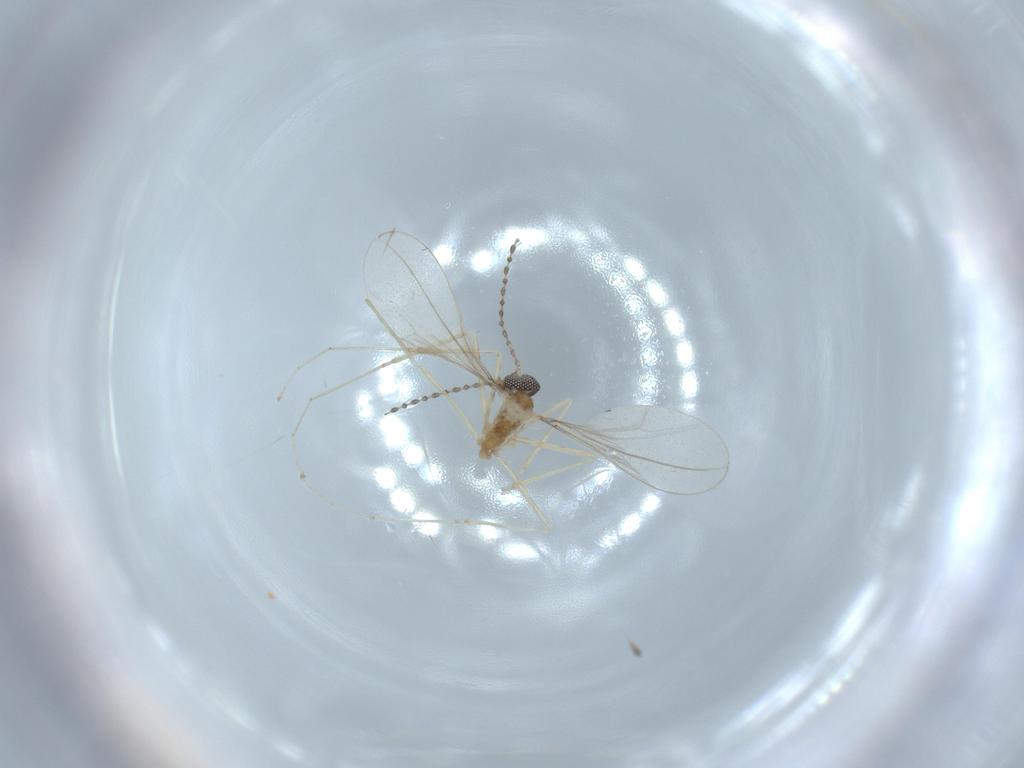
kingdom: Animalia
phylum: Arthropoda
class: Insecta
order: Diptera
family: Cecidomyiidae
